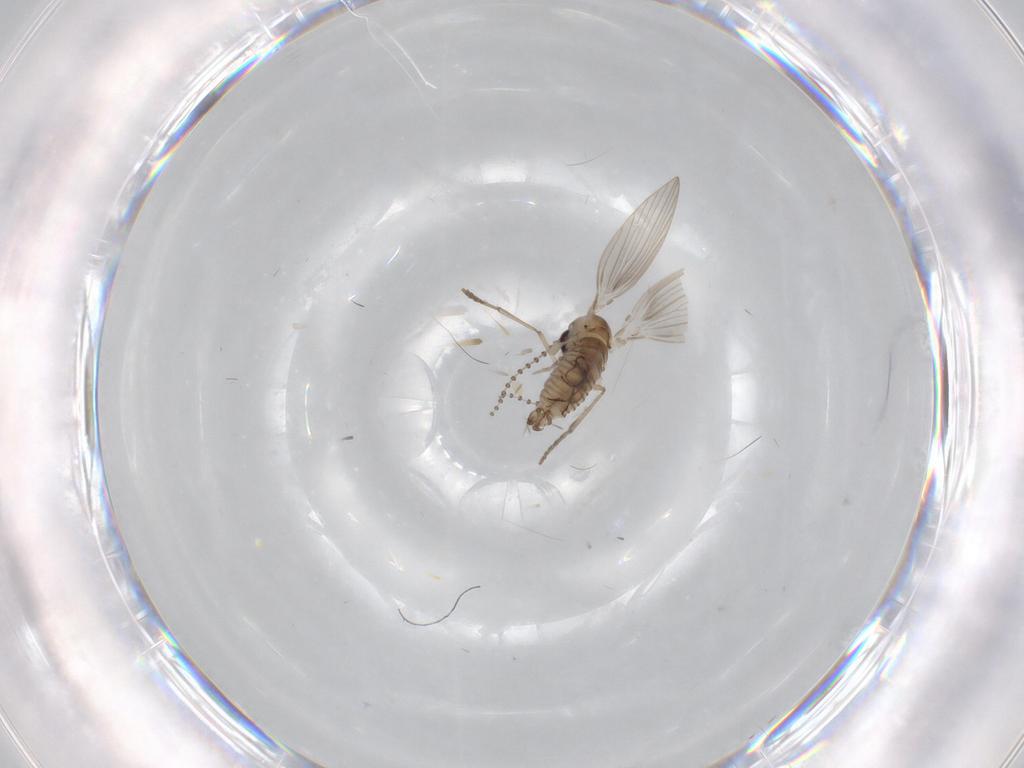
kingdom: Animalia
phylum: Arthropoda
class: Insecta
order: Diptera
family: Psychodidae
